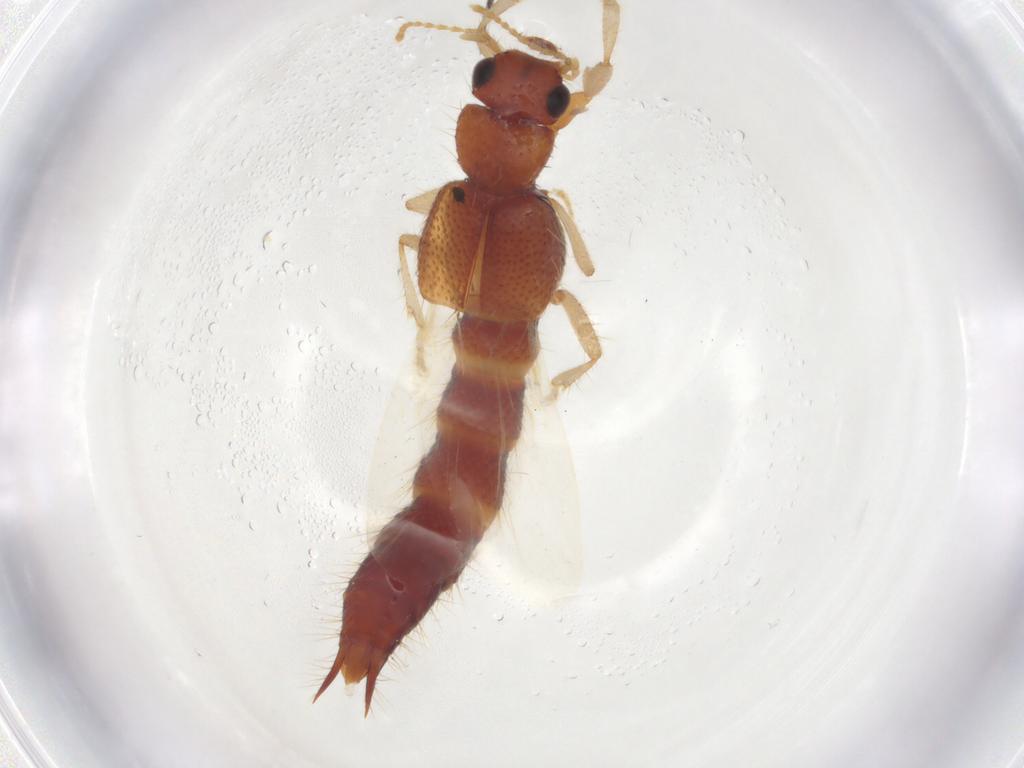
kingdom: Animalia
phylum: Arthropoda
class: Insecta
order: Coleoptera
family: Staphylinidae
